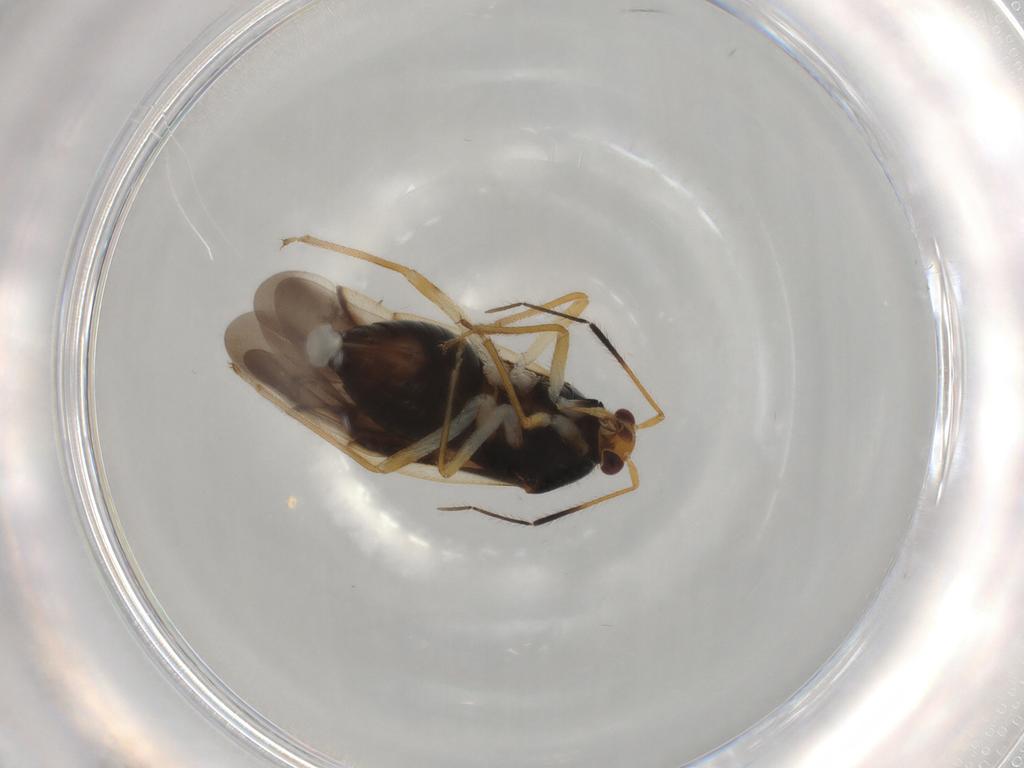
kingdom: Animalia
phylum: Arthropoda
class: Insecta
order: Hemiptera
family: Miridae
